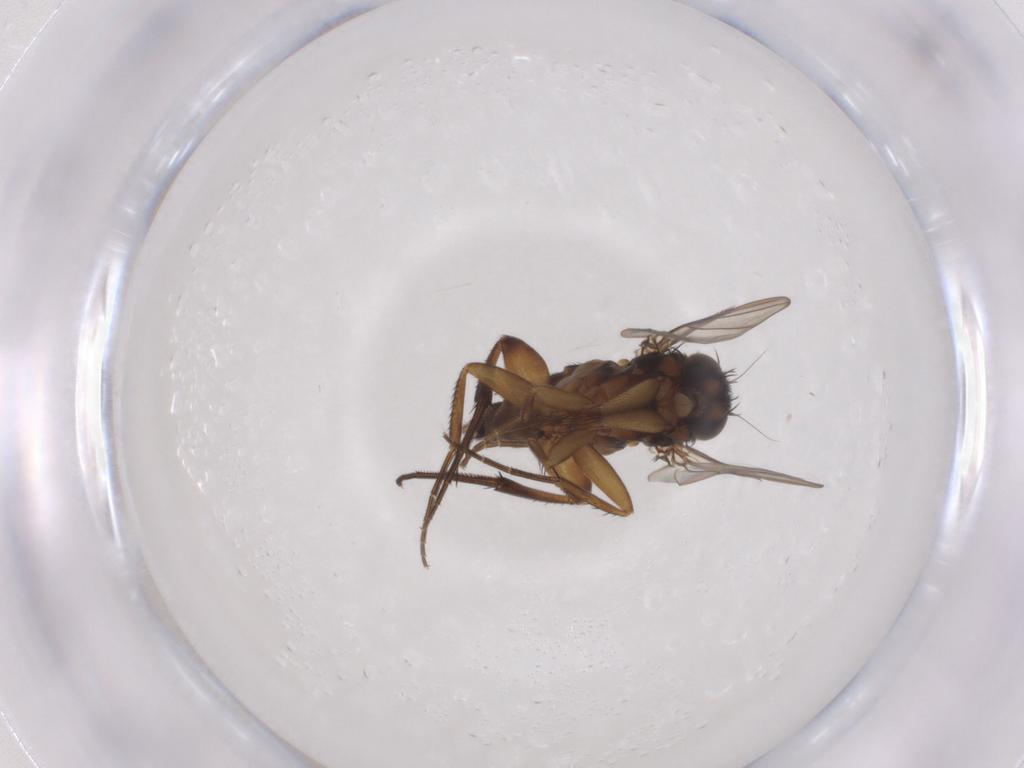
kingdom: Animalia
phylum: Arthropoda
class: Insecta
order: Diptera
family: Phoridae
